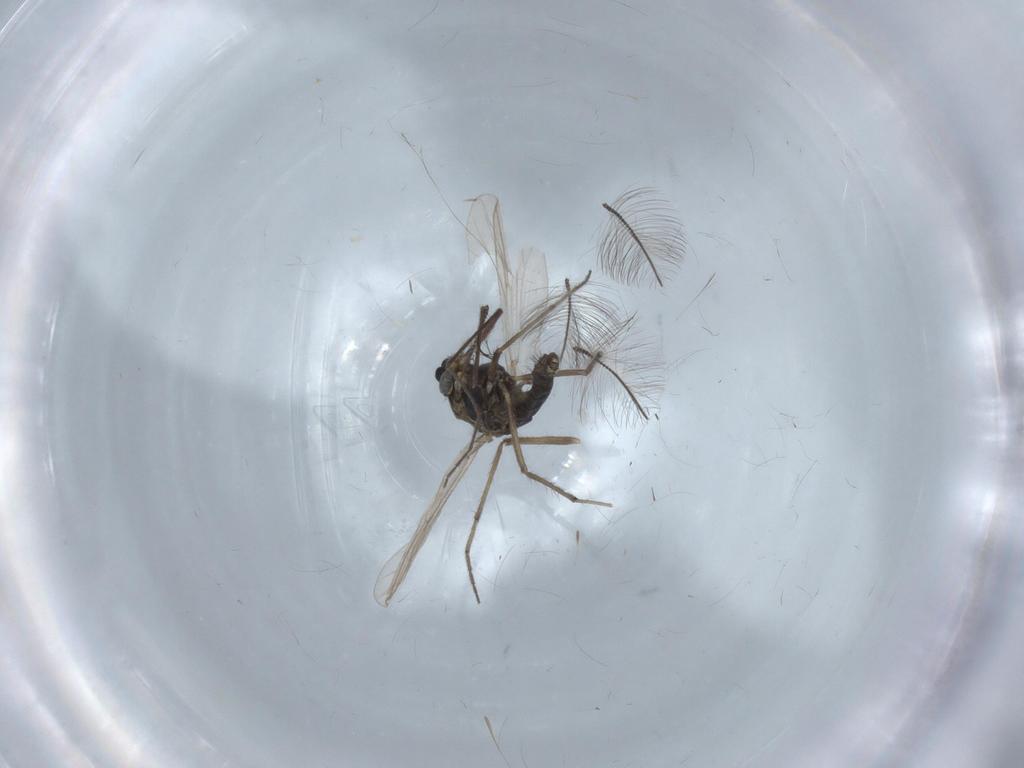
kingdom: Animalia
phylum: Arthropoda
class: Insecta
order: Diptera
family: Chironomidae
